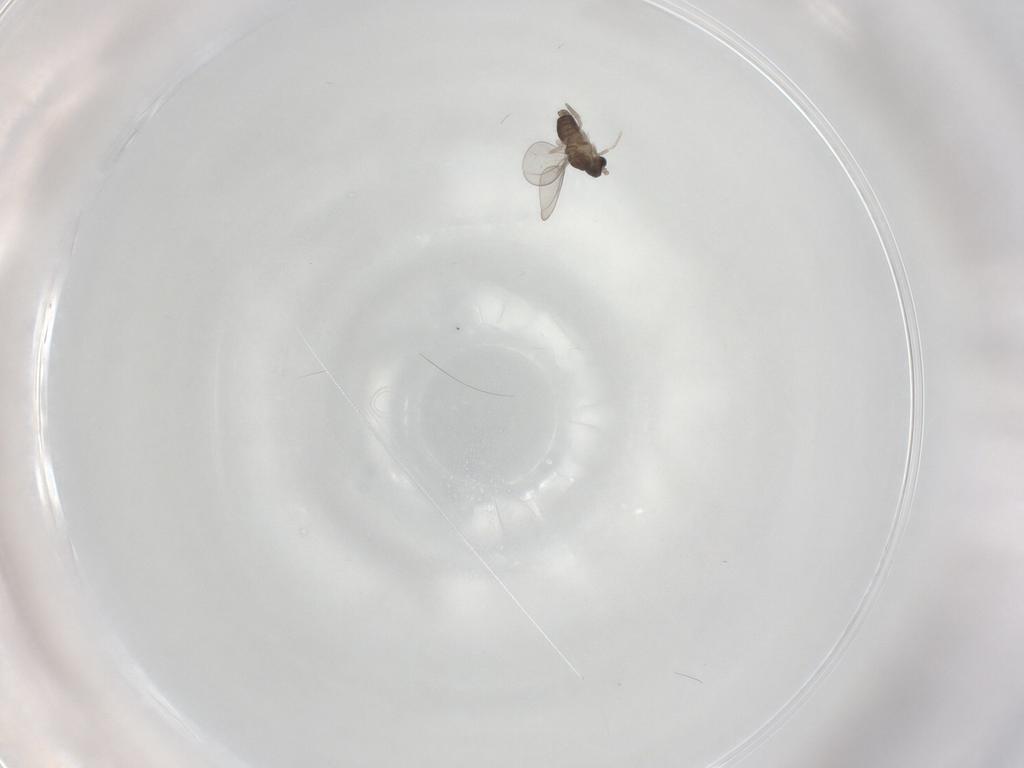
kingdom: Animalia
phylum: Arthropoda
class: Insecta
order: Diptera
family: Cecidomyiidae
